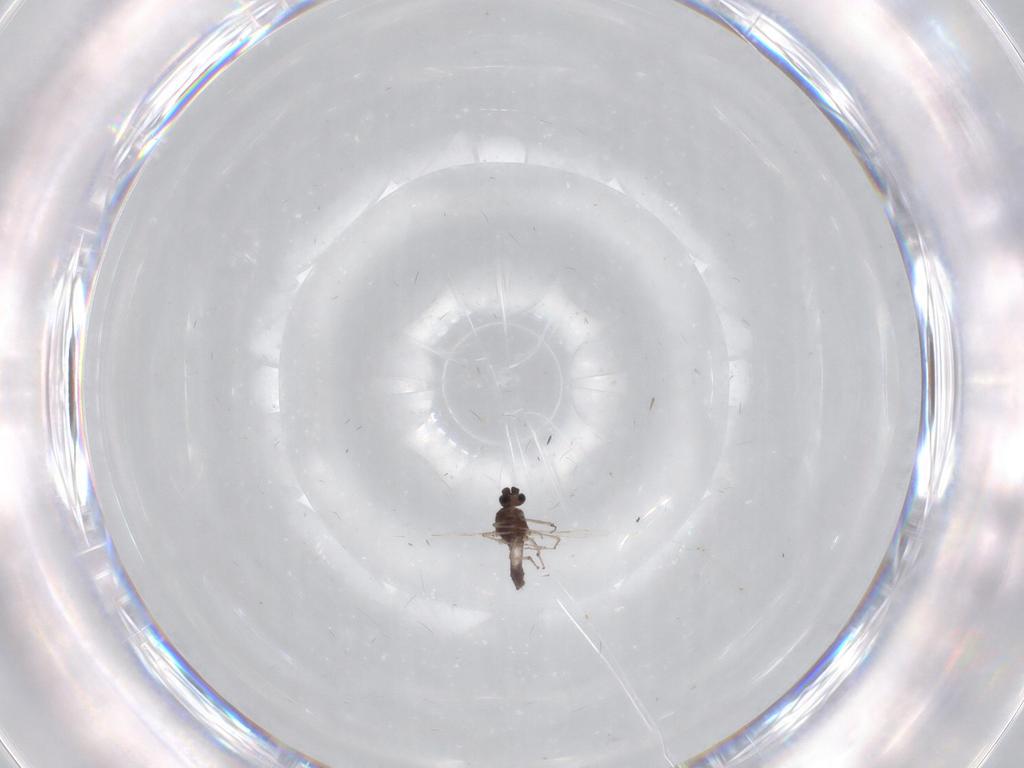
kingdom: Animalia
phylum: Arthropoda
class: Insecta
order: Diptera
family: Cecidomyiidae
